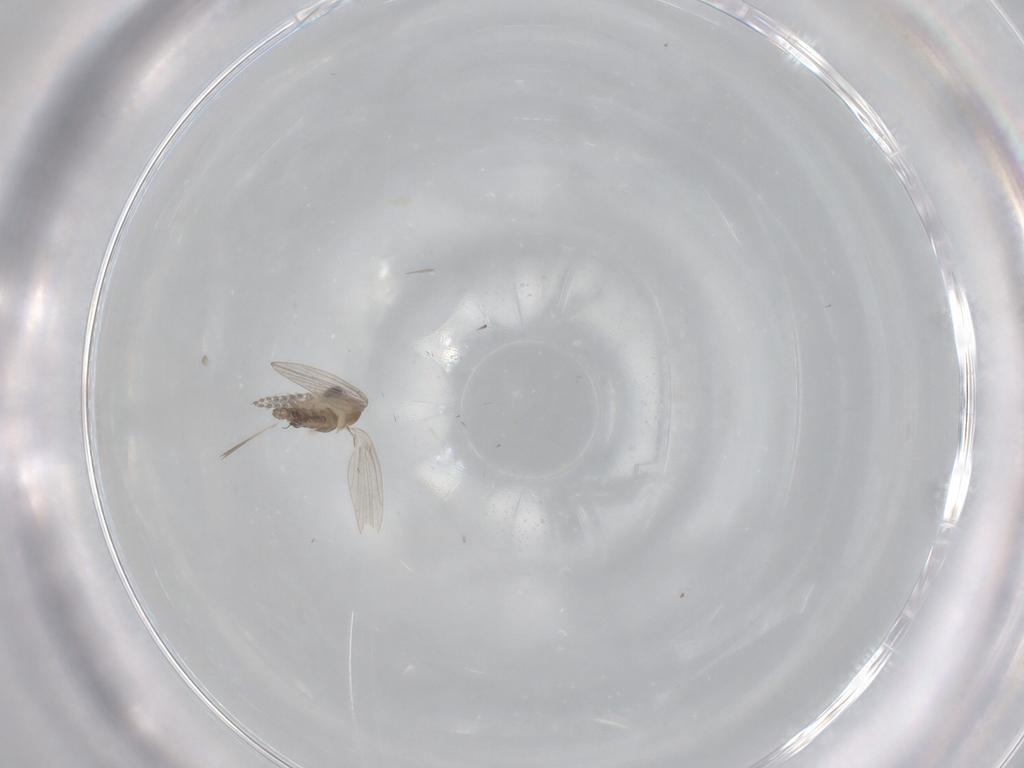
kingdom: Animalia
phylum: Arthropoda
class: Insecta
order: Diptera
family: Psychodidae
